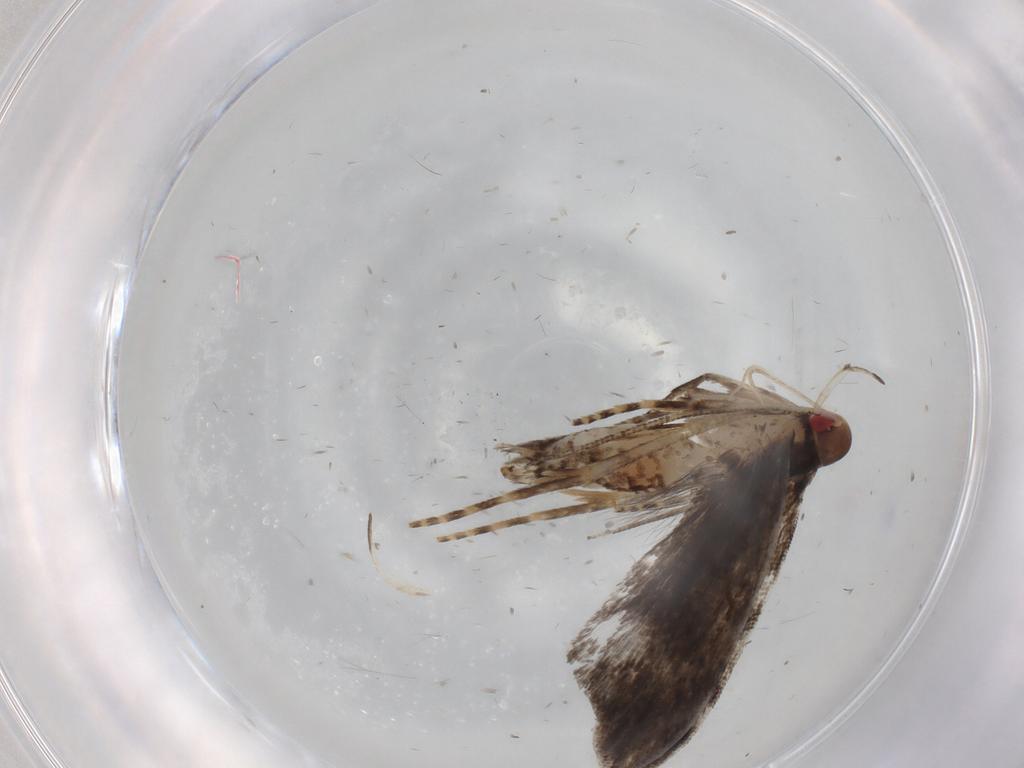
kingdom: Animalia
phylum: Arthropoda
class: Insecta
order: Lepidoptera
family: Gelechiidae
